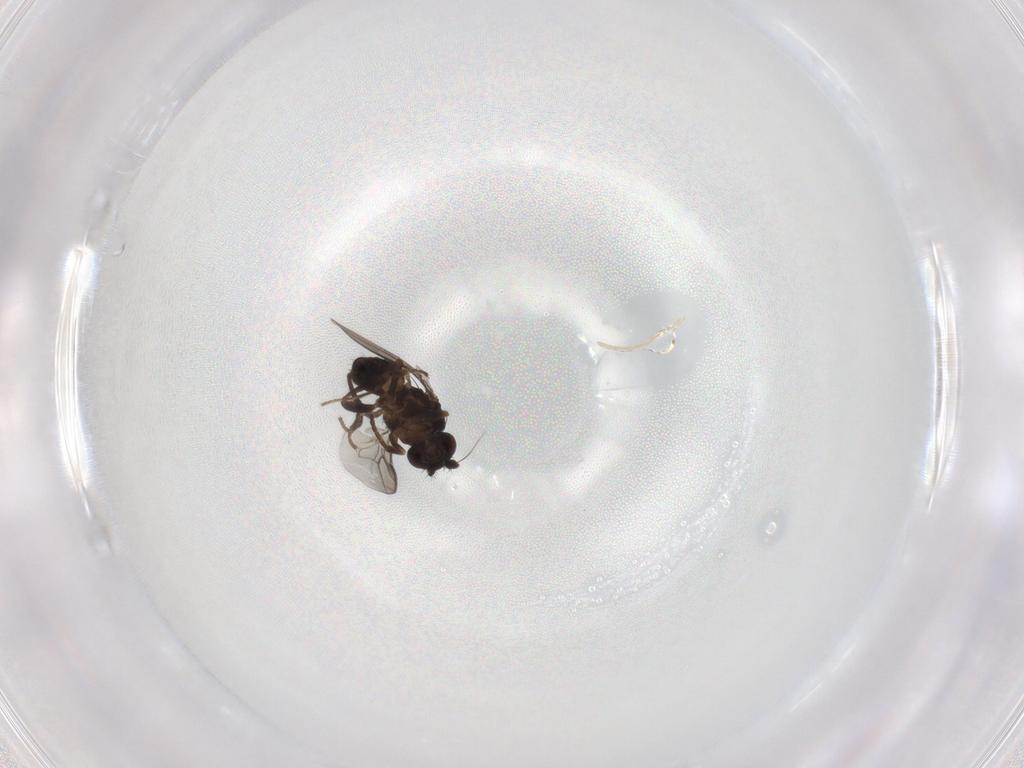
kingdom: Animalia
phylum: Arthropoda
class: Insecta
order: Diptera
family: Sphaeroceridae
